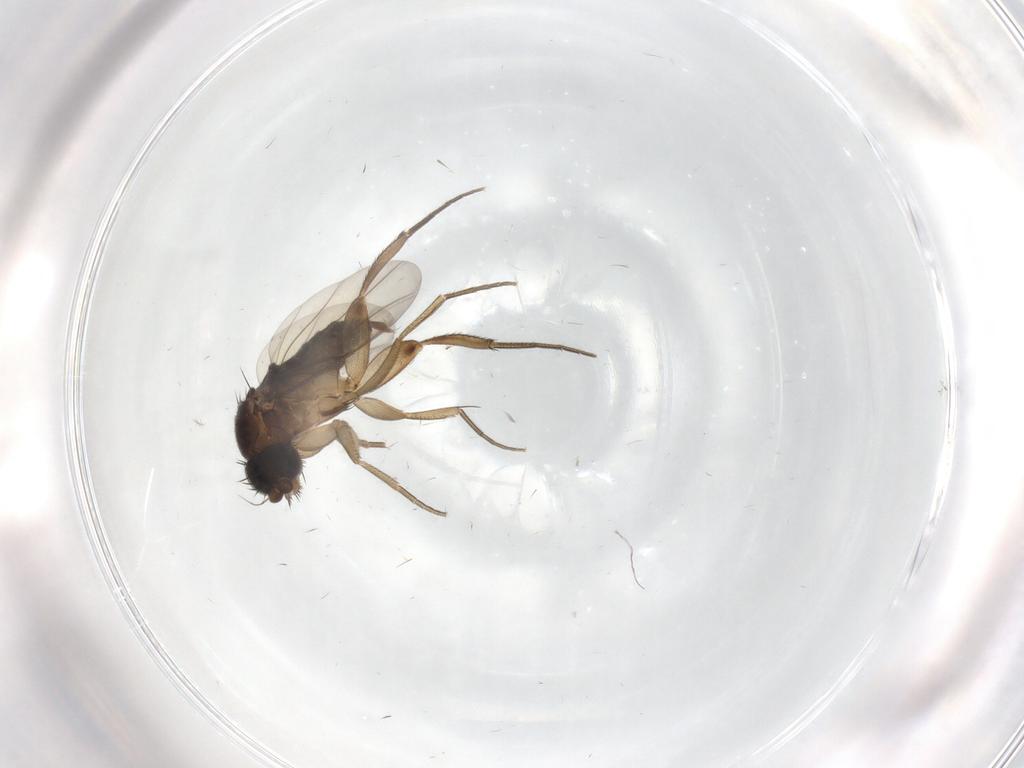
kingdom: Animalia
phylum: Arthropoda
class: Insecta
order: Diptera
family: Phoridae
